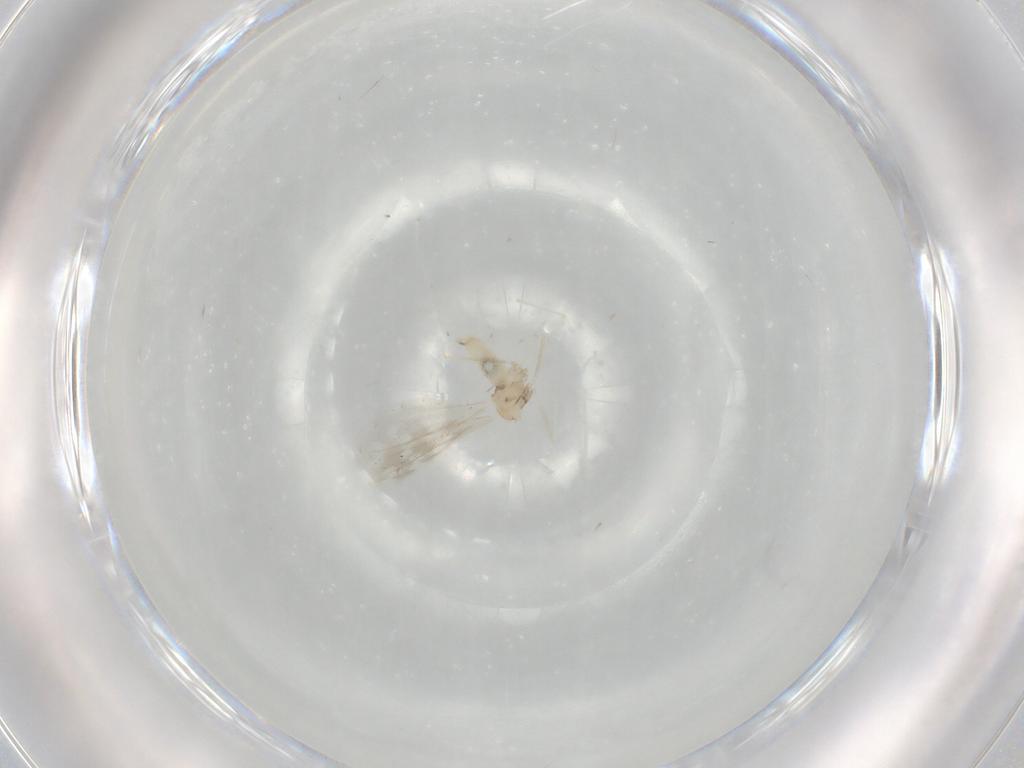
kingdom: Animalia
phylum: Arthropoda
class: Insecta
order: Diptera
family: Cecidomyiidae
